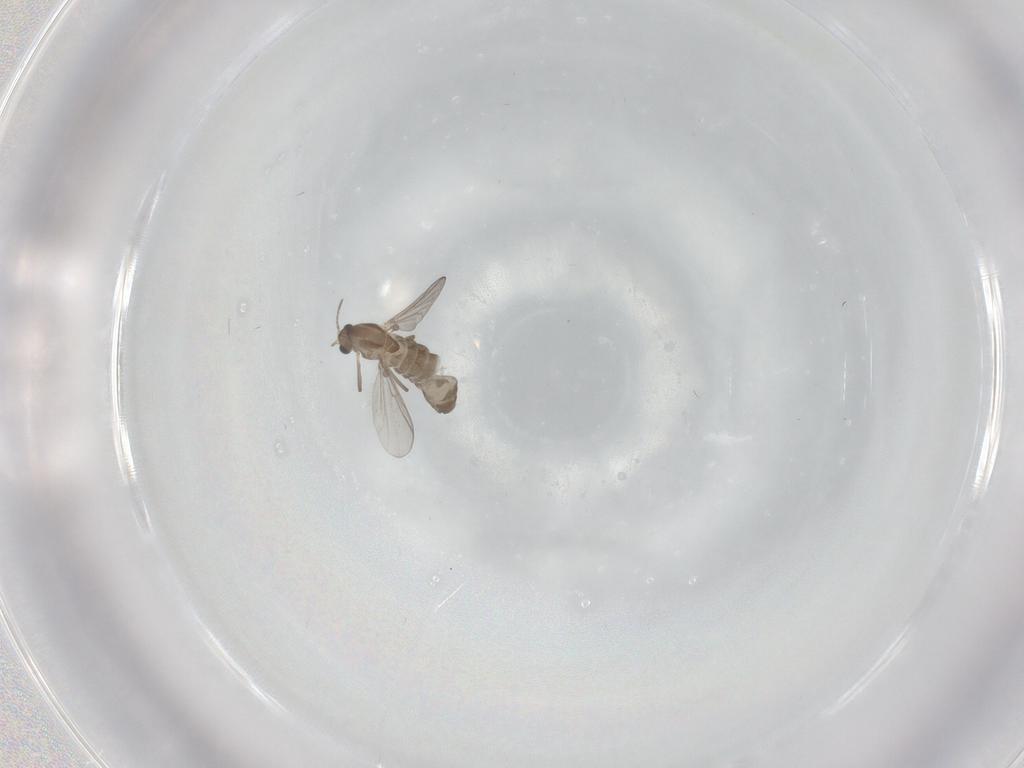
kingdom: Animalia
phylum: Arthropoda
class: Insecta
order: Diptera
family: Chironomidae
